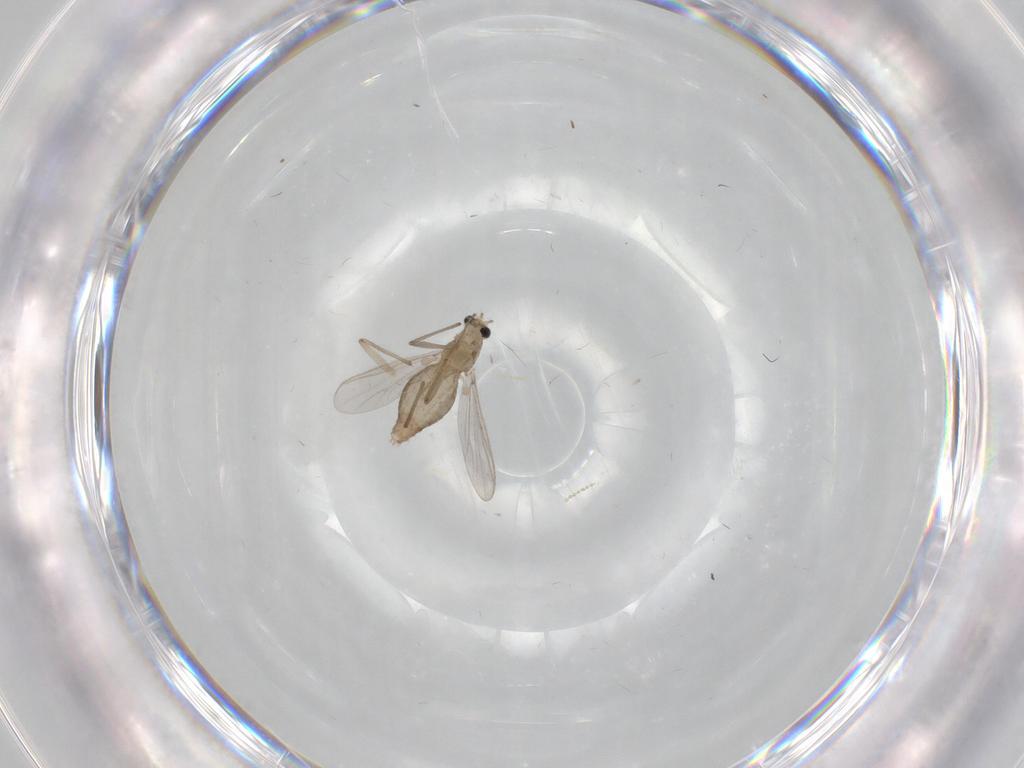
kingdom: Animalia
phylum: Arthropoda
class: Insecta
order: Diptera
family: Chironomidae
